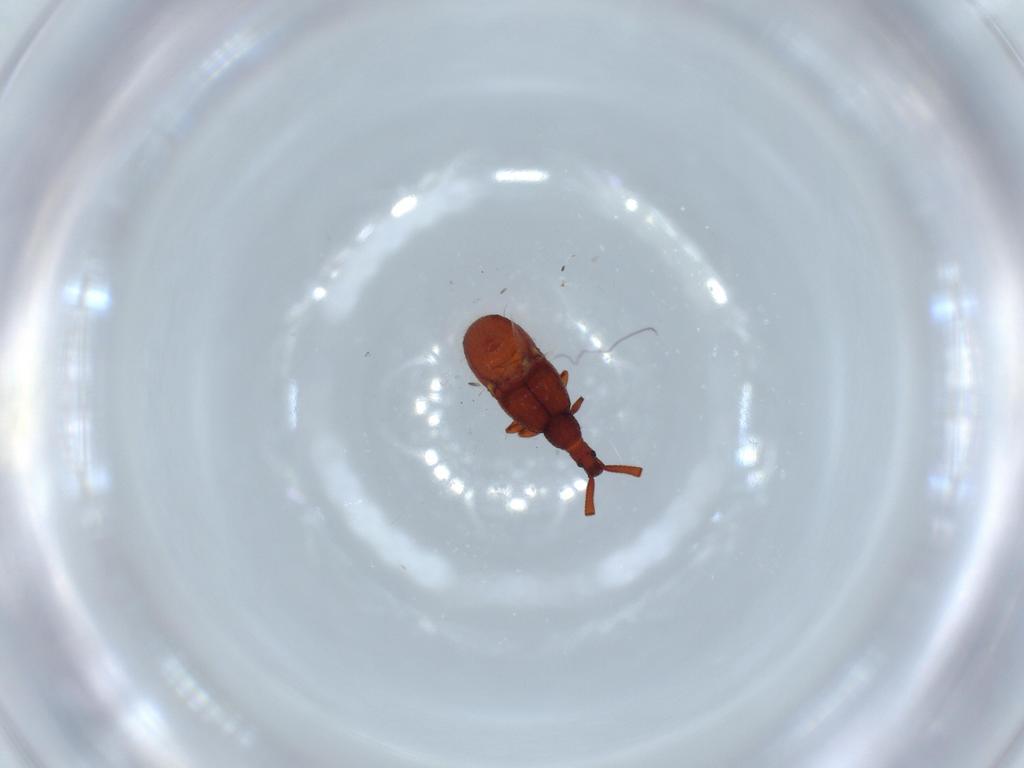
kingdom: Animalia
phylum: Arthropoda
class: Insecta
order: Coleoptera
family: Staphylinidae
